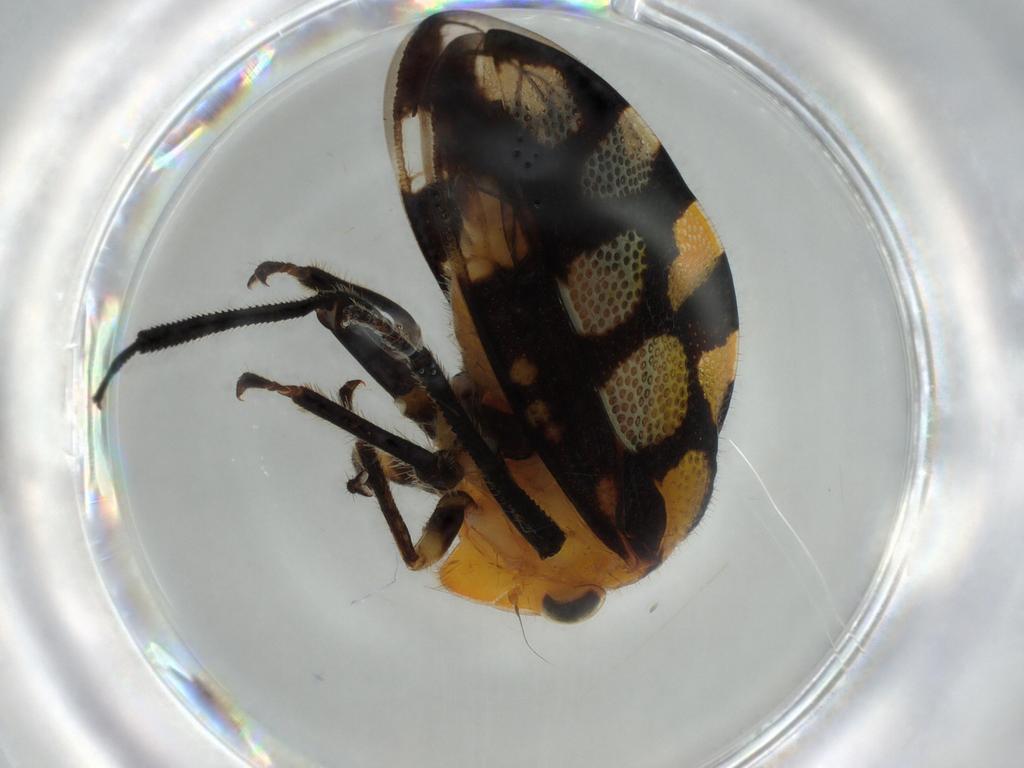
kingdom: Animalia
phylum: Arthropoda
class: Insecta
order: Hemiptera
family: Membracidae
